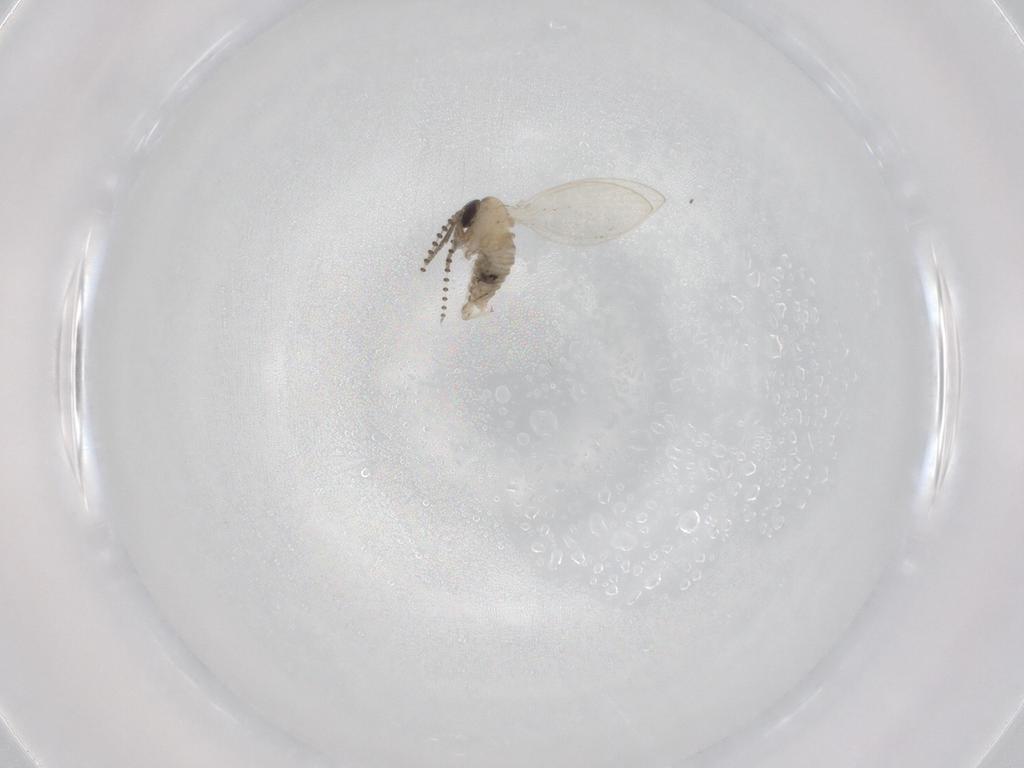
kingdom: Animalia
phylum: Arthropoda
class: Insecta
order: Diptera
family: Psychodidae
